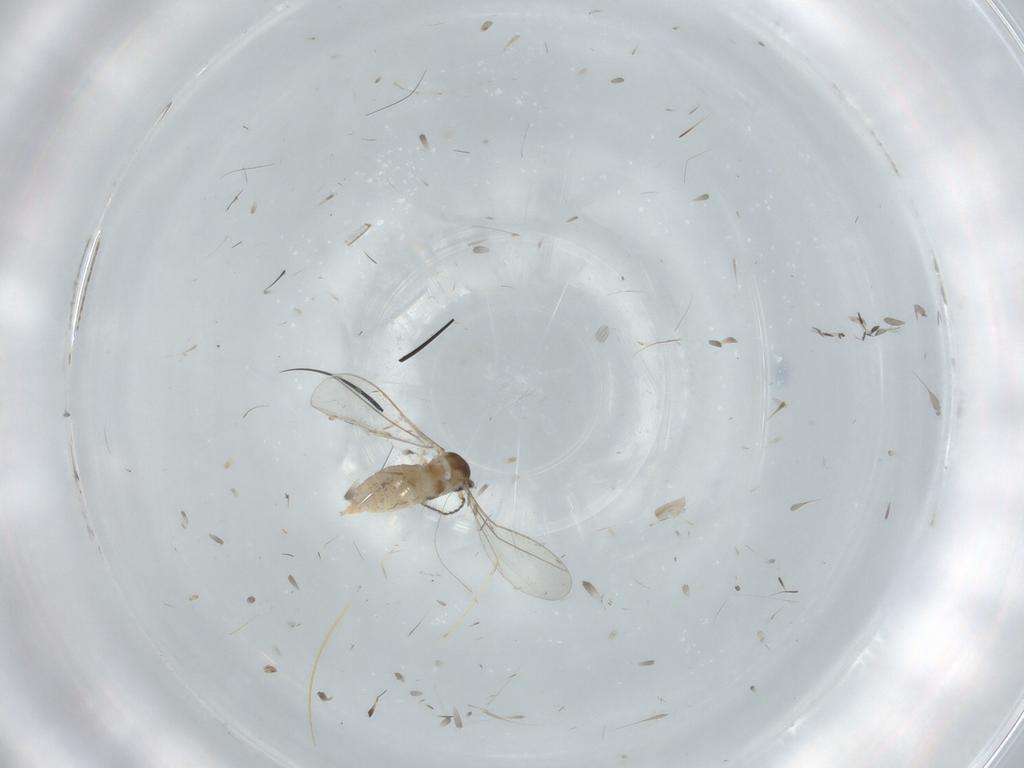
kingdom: Animalia
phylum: Arthropoda
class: Insecta
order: Diptera
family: Cecidomyiidae
